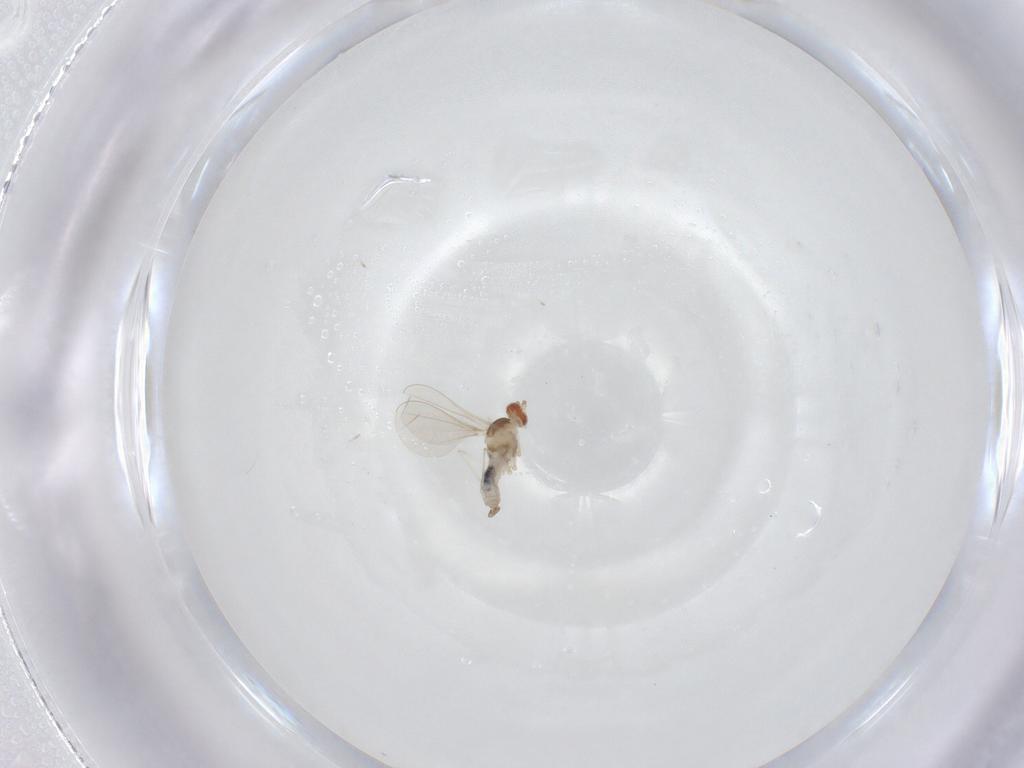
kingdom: Animalia
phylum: Arthropoda
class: Insecta
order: Diptera
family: Cecidomyiidae
